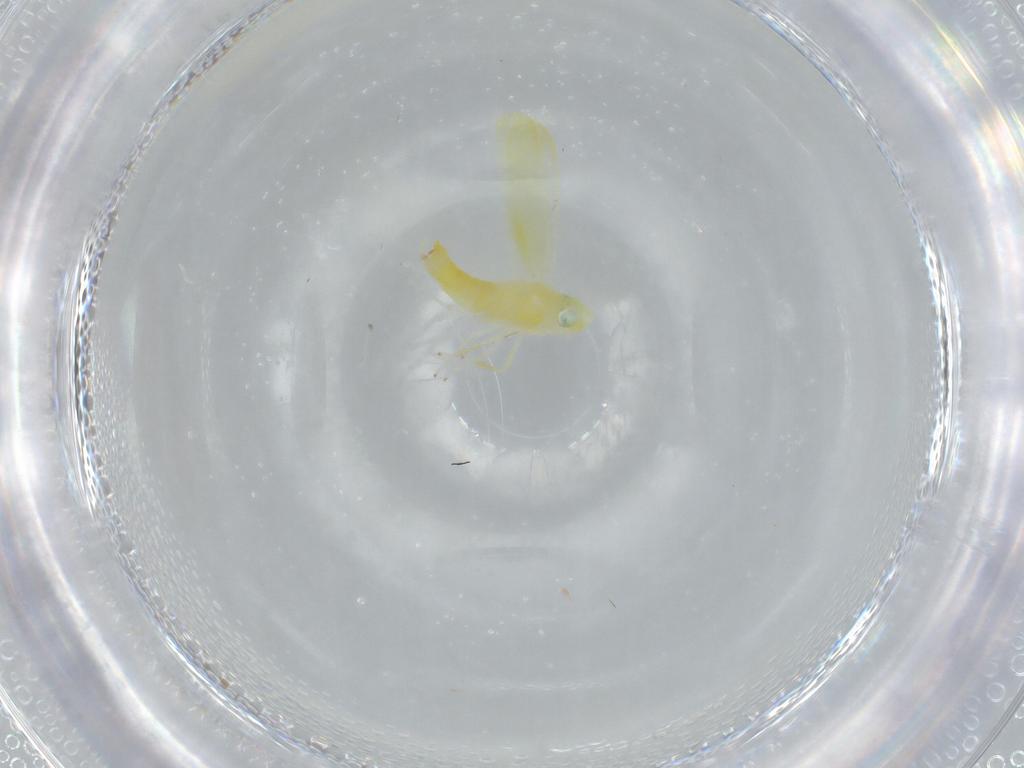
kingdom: Animalia
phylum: Arthropoda
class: Insecta
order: Hemiptera
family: Cicadellidae
